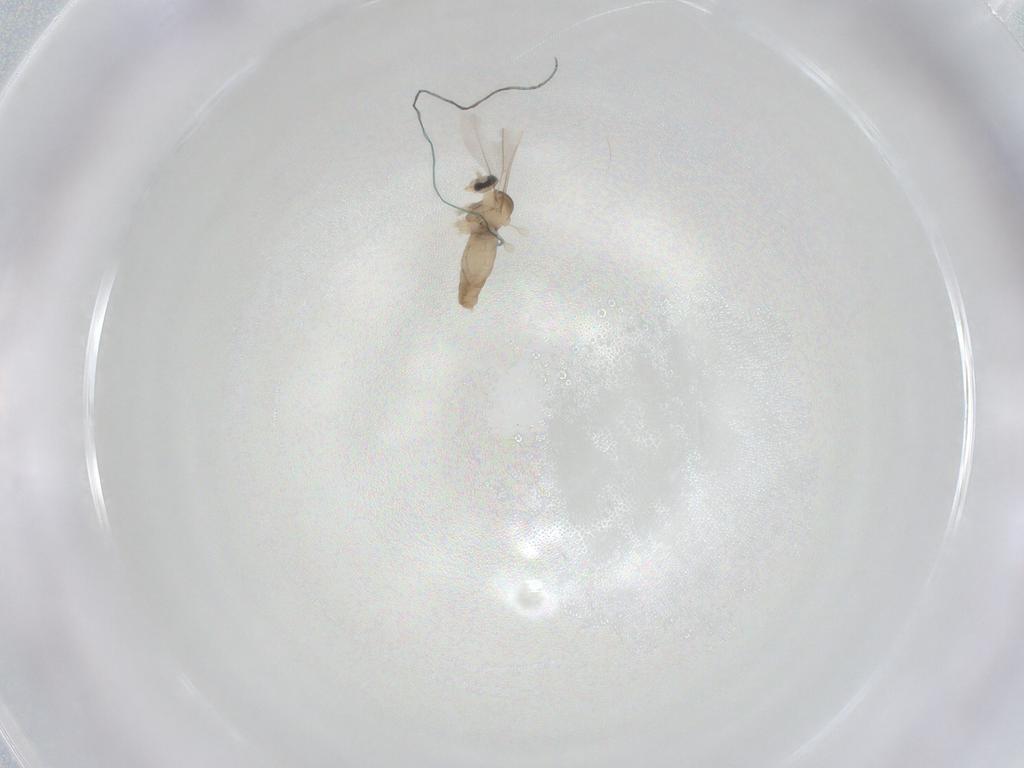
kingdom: Animalia
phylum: Arthropoda
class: Insecta
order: Diptera
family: Cecidomyiidae
